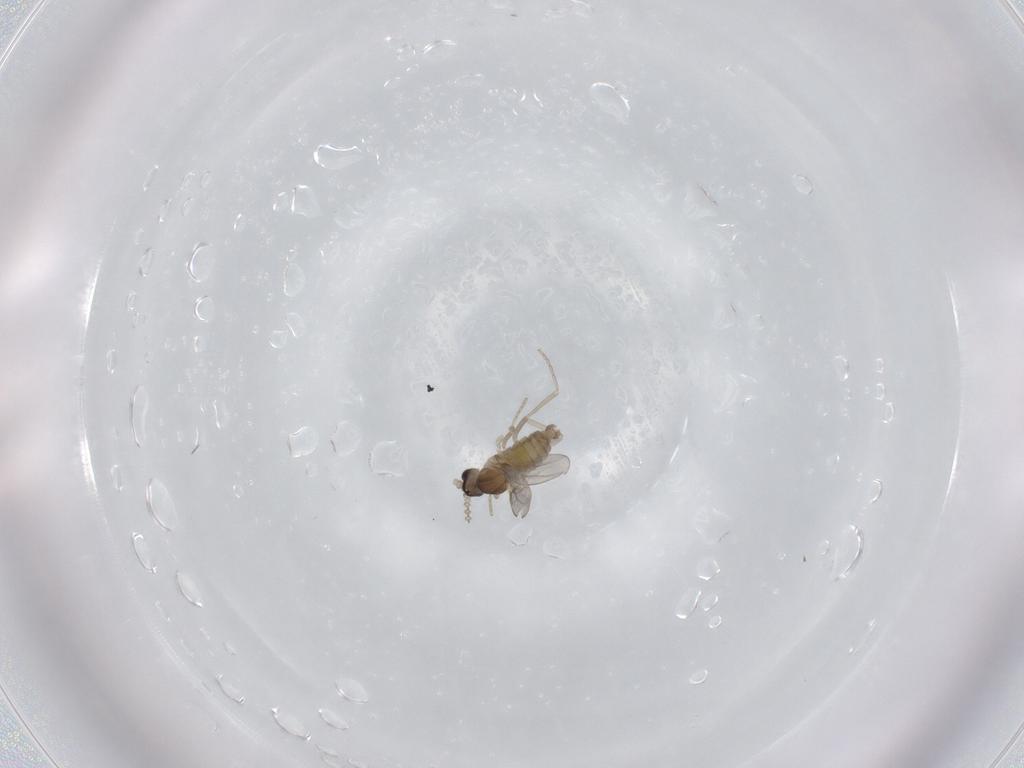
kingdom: Animalia
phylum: Arthropoda
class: Insecta
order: Diptera
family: Cecidomyiidae
